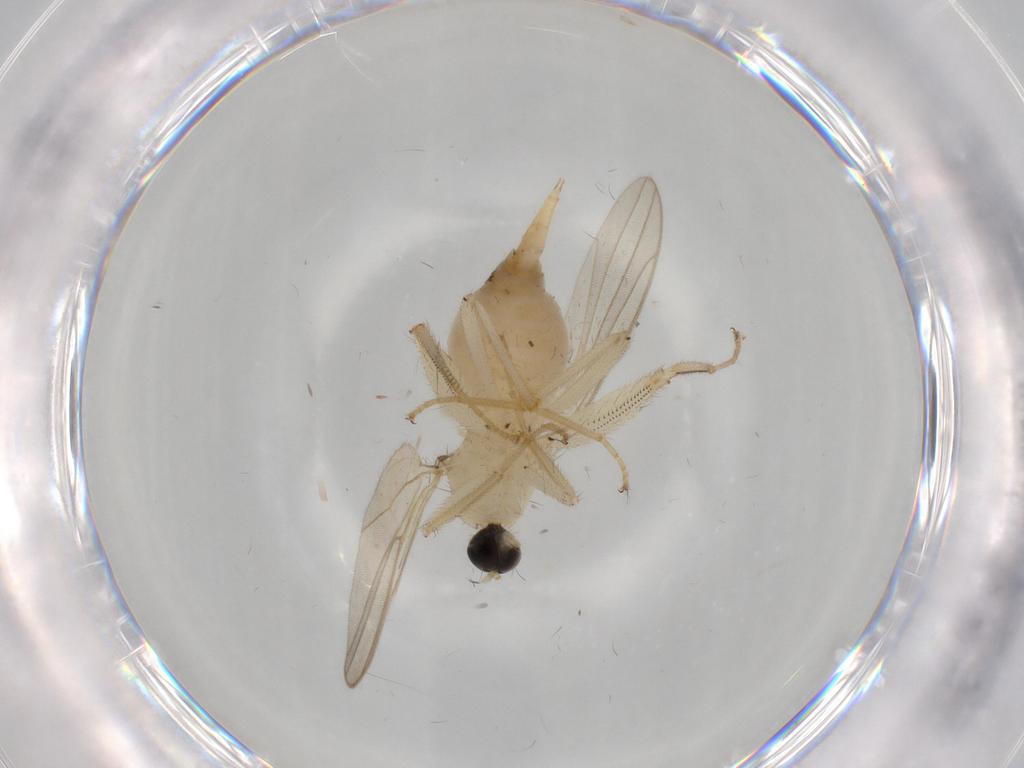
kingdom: Animalia
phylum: Arthropoda
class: Insecta
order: Diptera
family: Hybotidae
